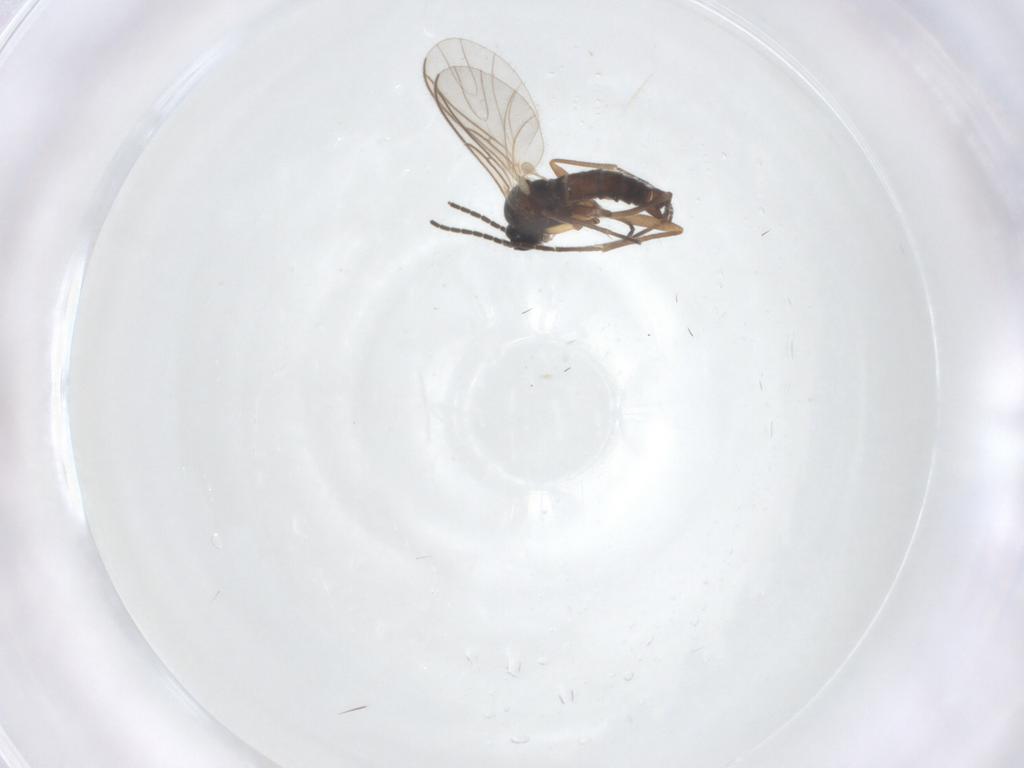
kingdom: Animalia
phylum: Arthropoda
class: Insecta
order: Diptera
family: Heleomyzidae
